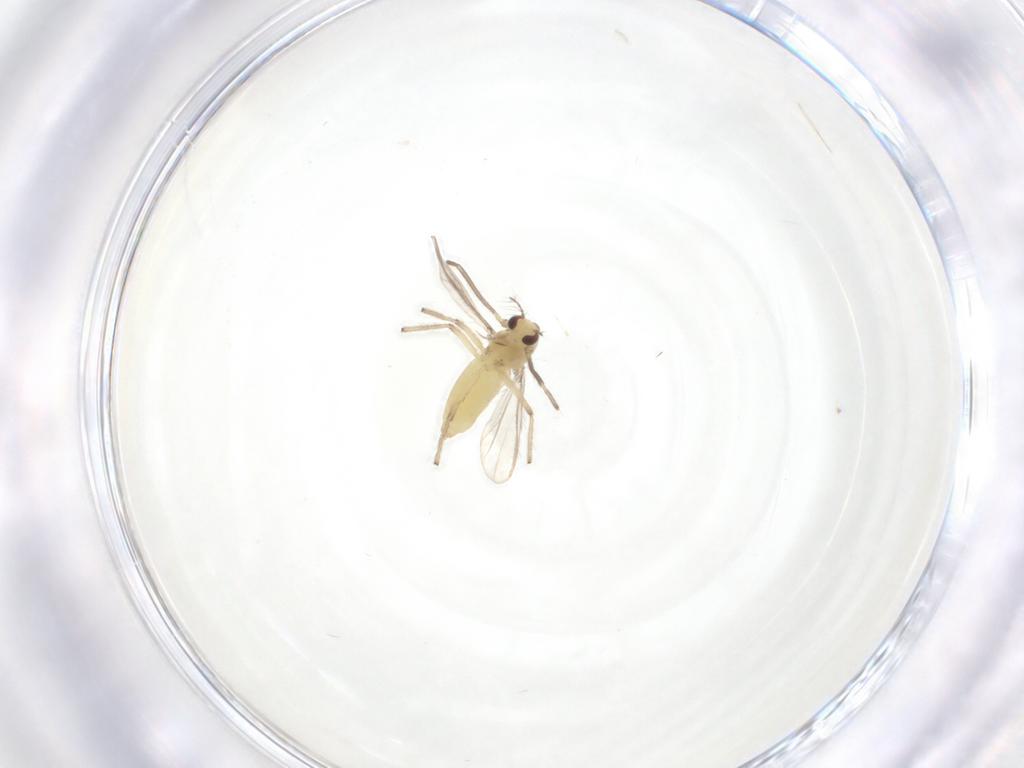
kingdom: Animalia
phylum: Arthropoda
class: Insecta
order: Diptera
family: Chironomidae
